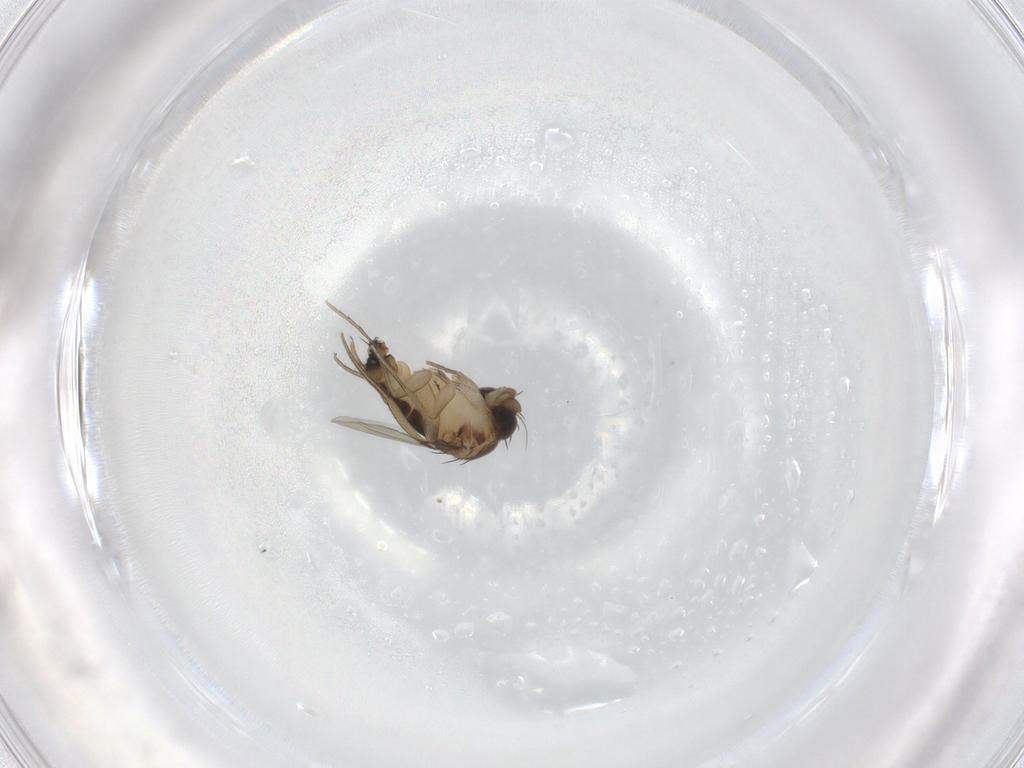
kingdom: Animalia
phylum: Arthropoda
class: Insecta
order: Diptera
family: Phoridae
